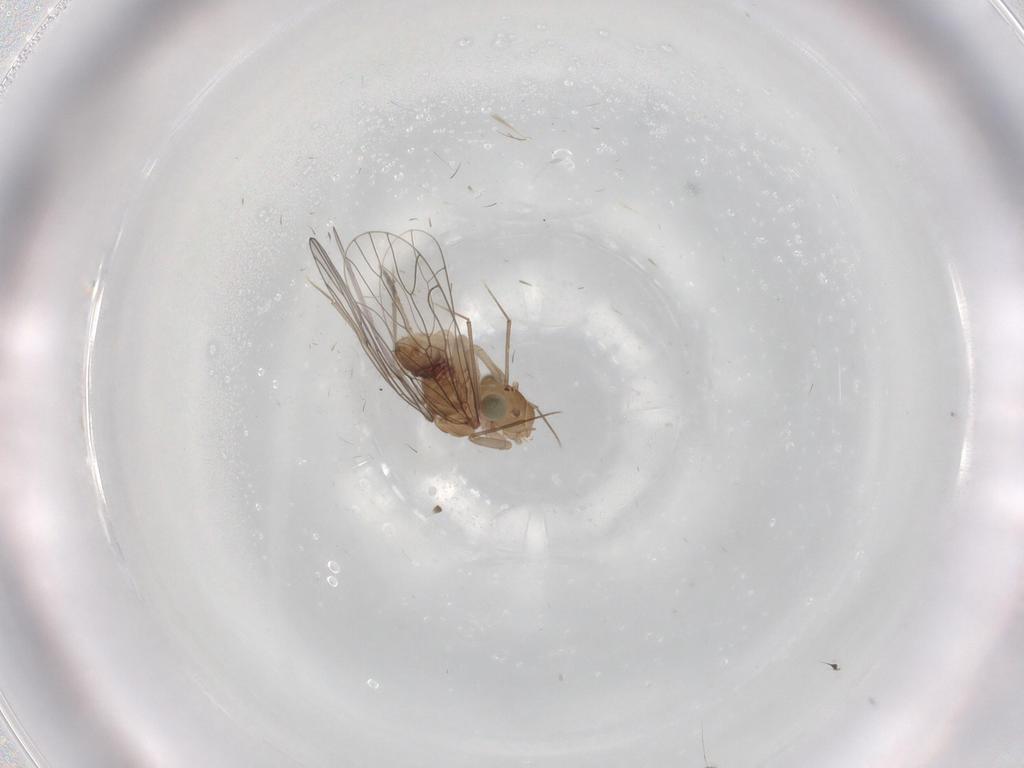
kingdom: Animalia
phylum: Arthropoda
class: Insecta
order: Psocodea
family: Amphientomidae
